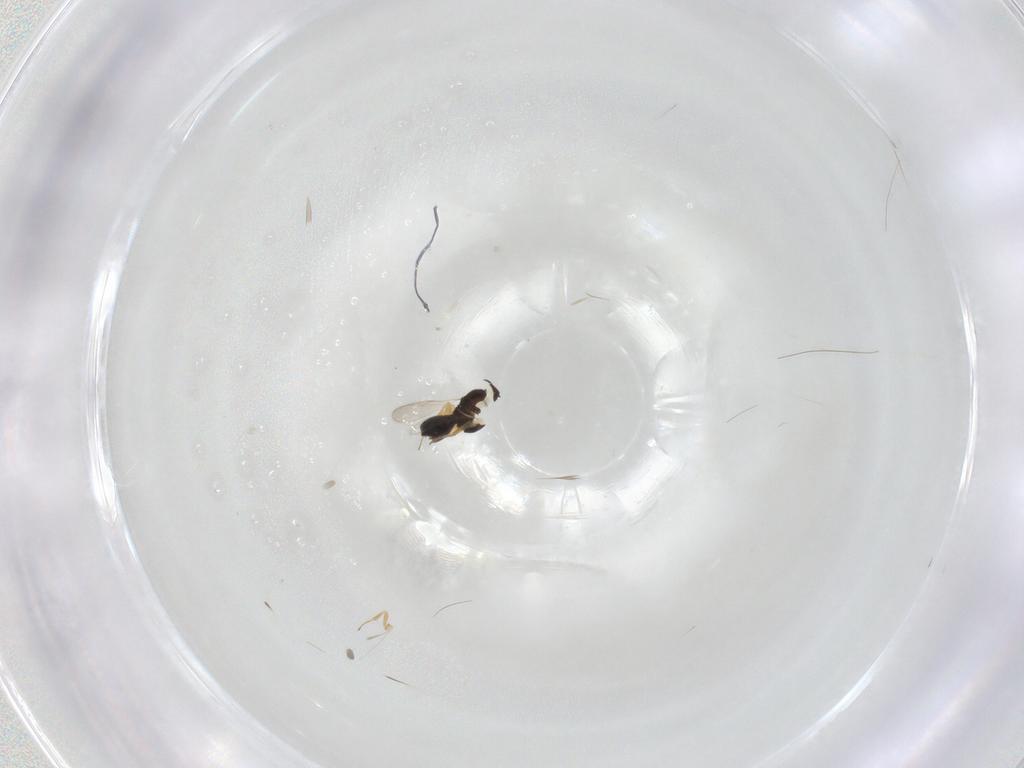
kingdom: Animalia
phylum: Arthropoda
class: Insecta
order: Hymenoptera
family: Scelionidae
